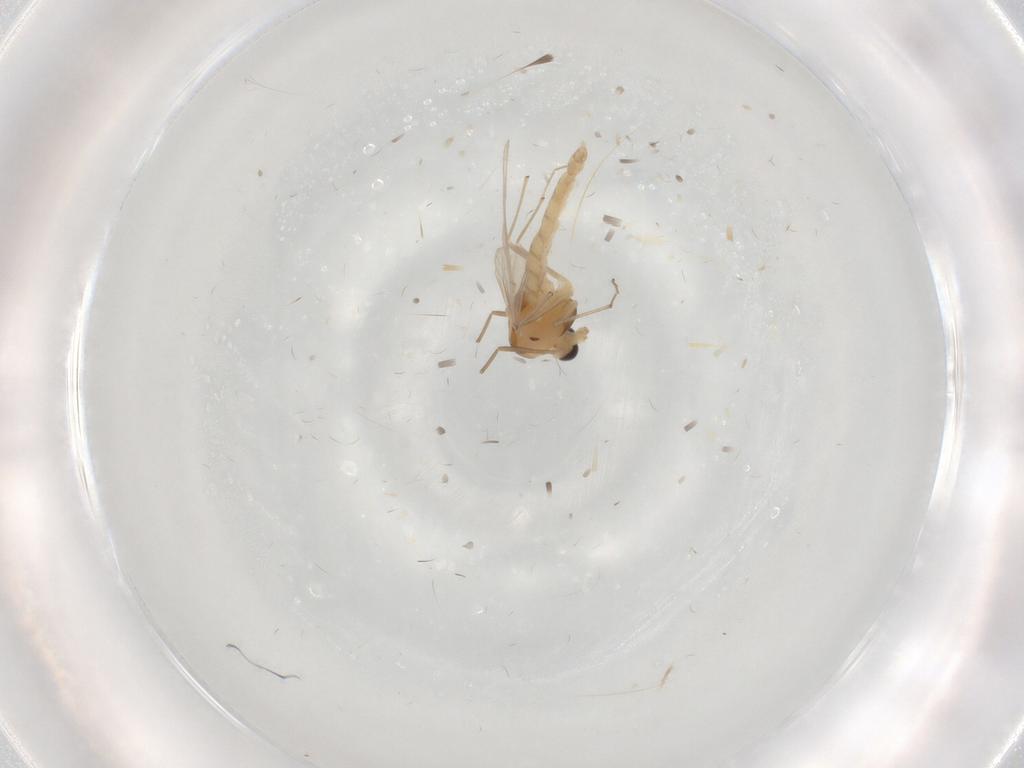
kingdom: Animalia
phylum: Arthropoda
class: Insecta
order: Diptera
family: Chironomidae
